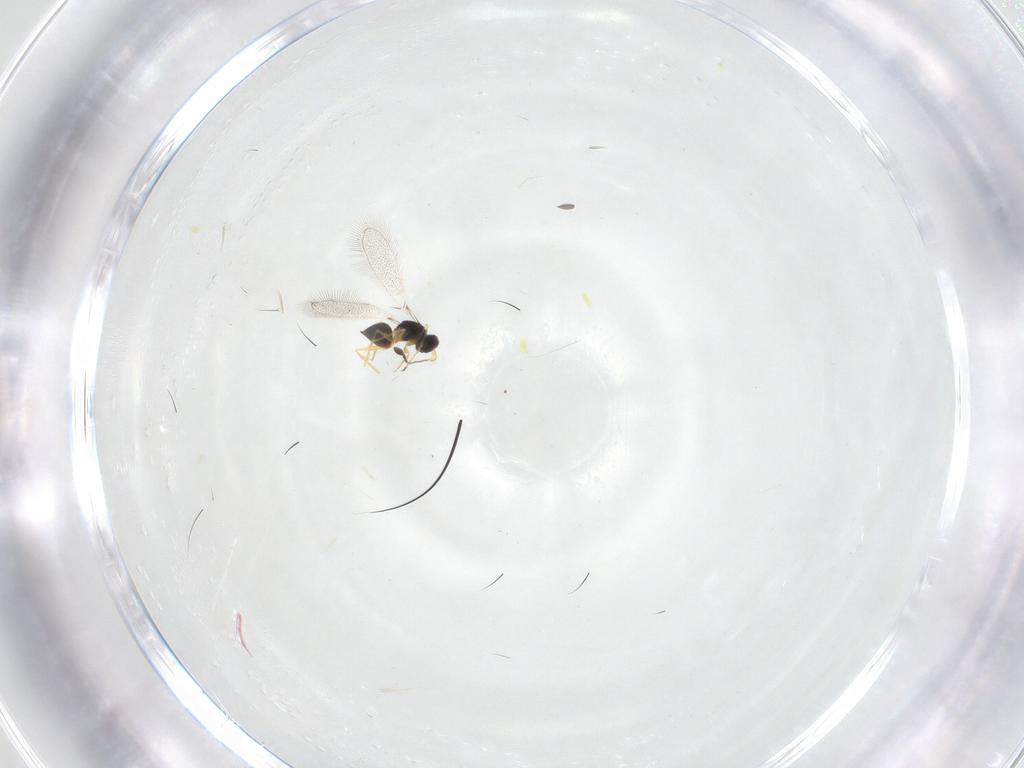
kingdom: Animalia
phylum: Arthropoda
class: Insecta
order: Hymenoptera
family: Mymaridae
